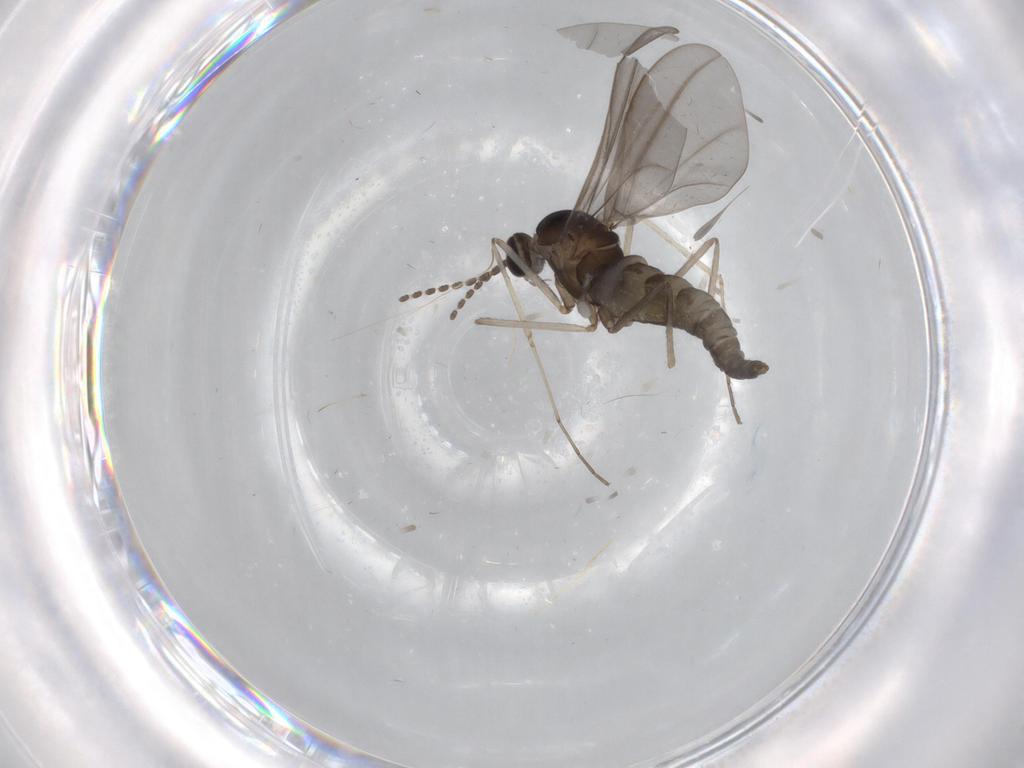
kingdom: Animalia
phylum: Arthropoda
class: Insecta
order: Diptera
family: Cecidomyiidae
